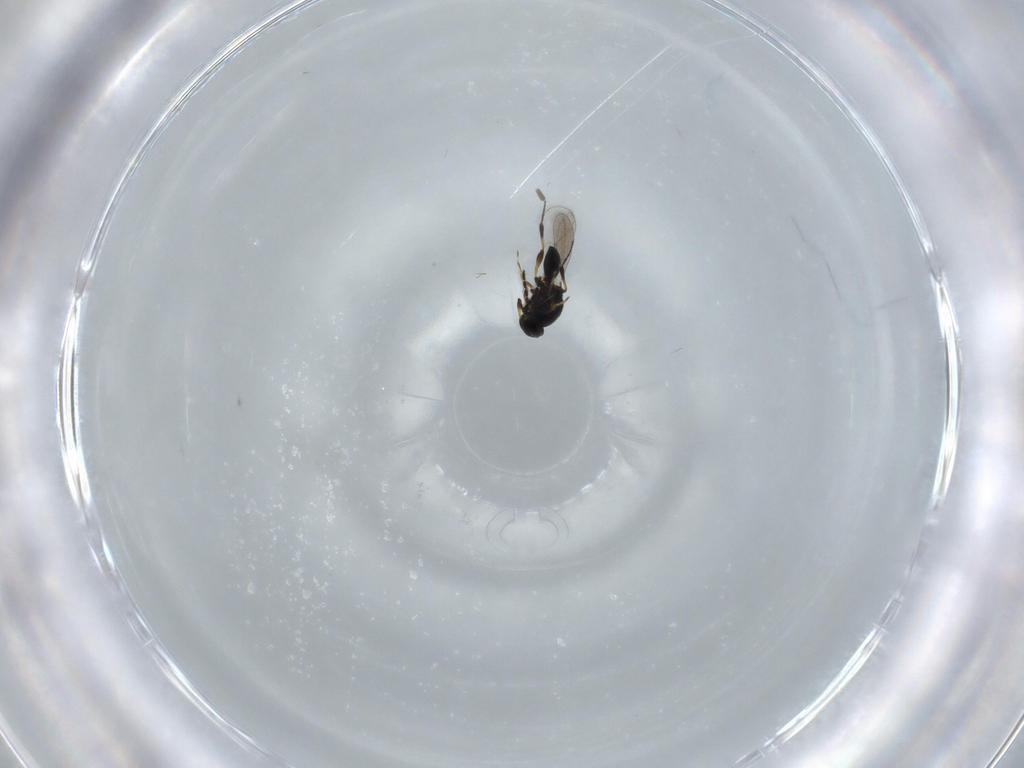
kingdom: Animalia
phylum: Arthropoda
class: Insecta
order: Hymenoptera
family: Platygastridae
